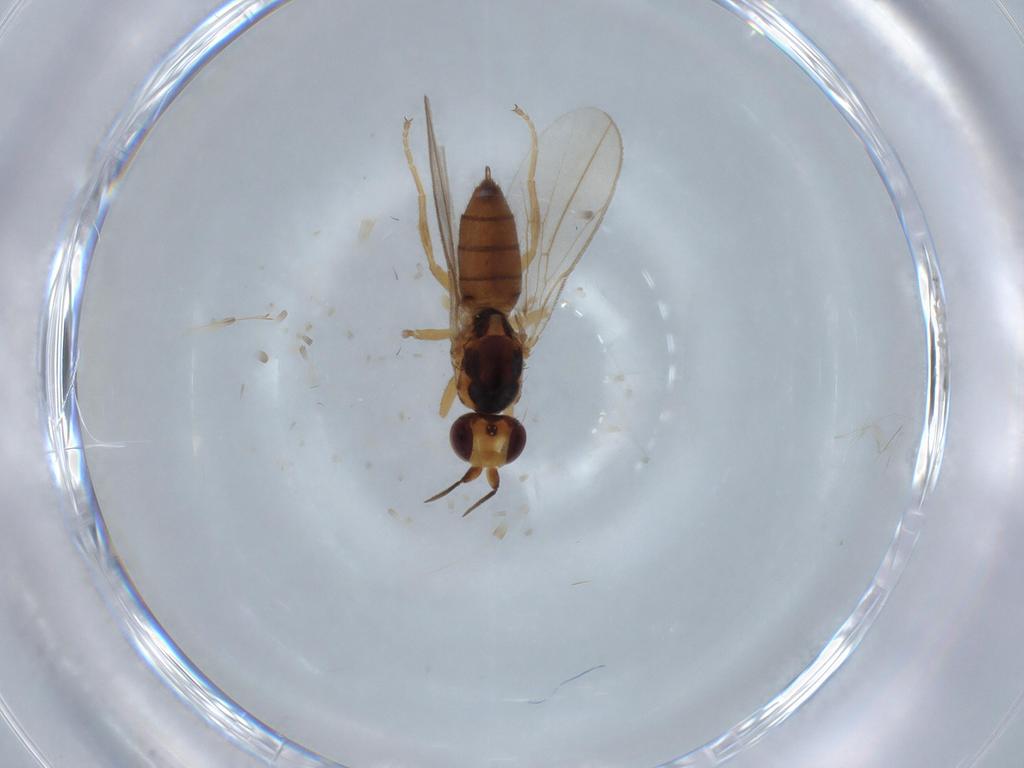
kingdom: Animalia
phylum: Arthropoda
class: Insecta
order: Diptera
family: Chloropidae
